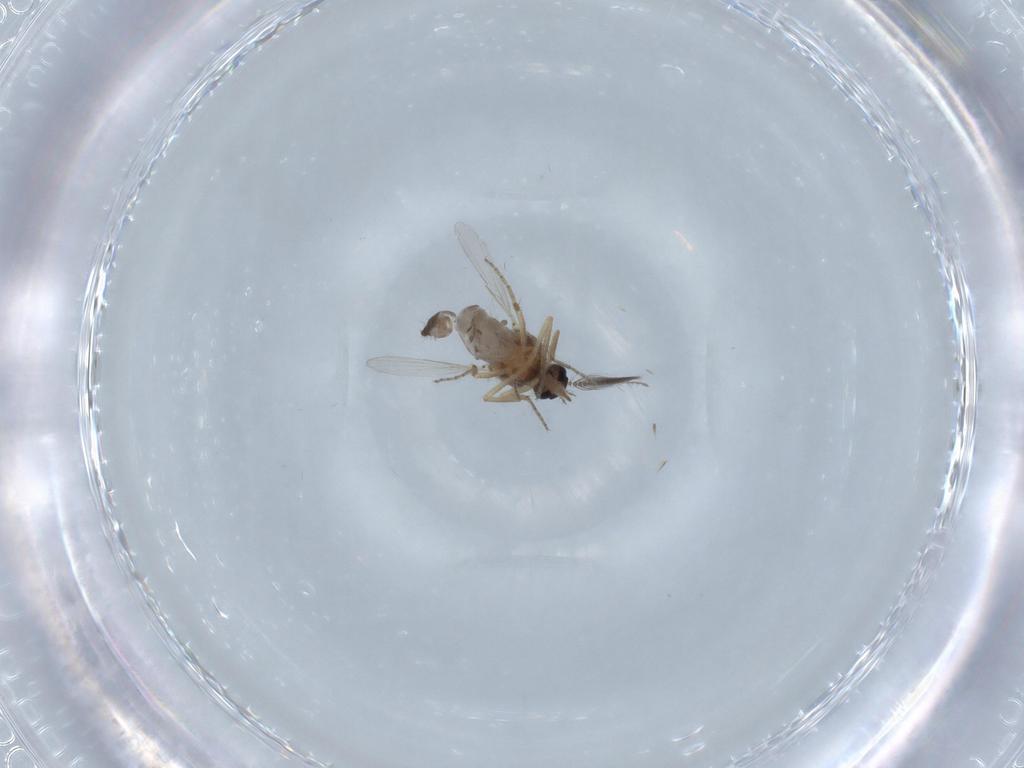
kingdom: Animalia
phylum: Arthropoda
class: Insecta
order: Diptera
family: Ceratopogonidae
